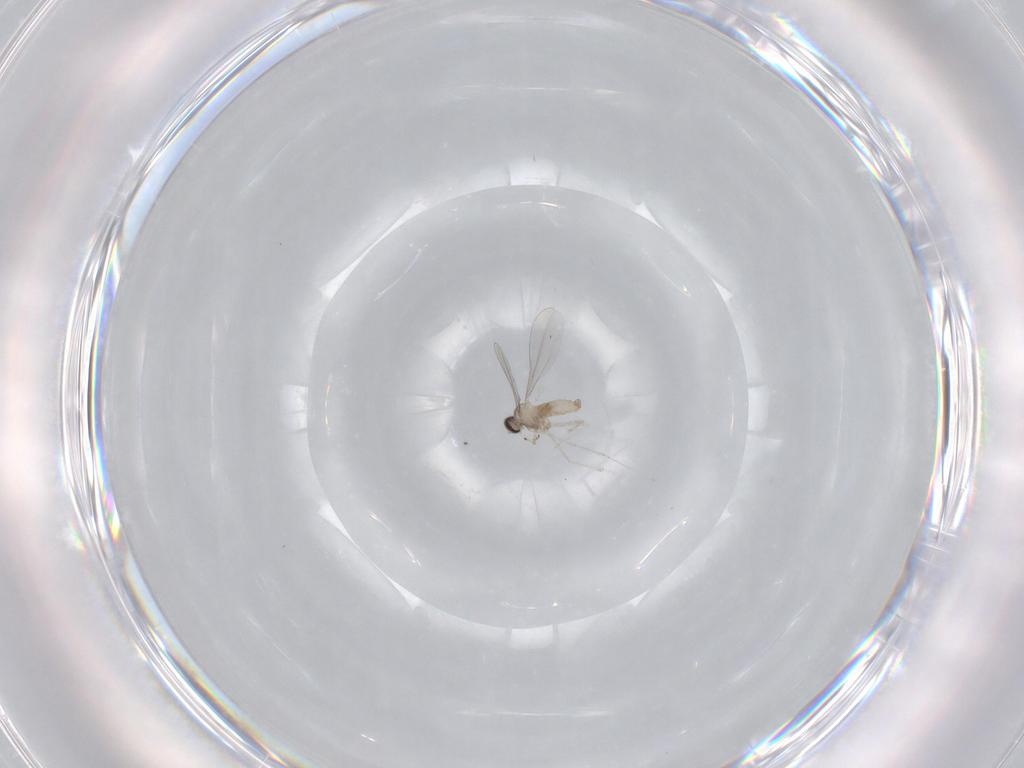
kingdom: Animalia
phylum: Arthropoda
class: Insecta
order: Diptera
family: Cecidomyiidae
